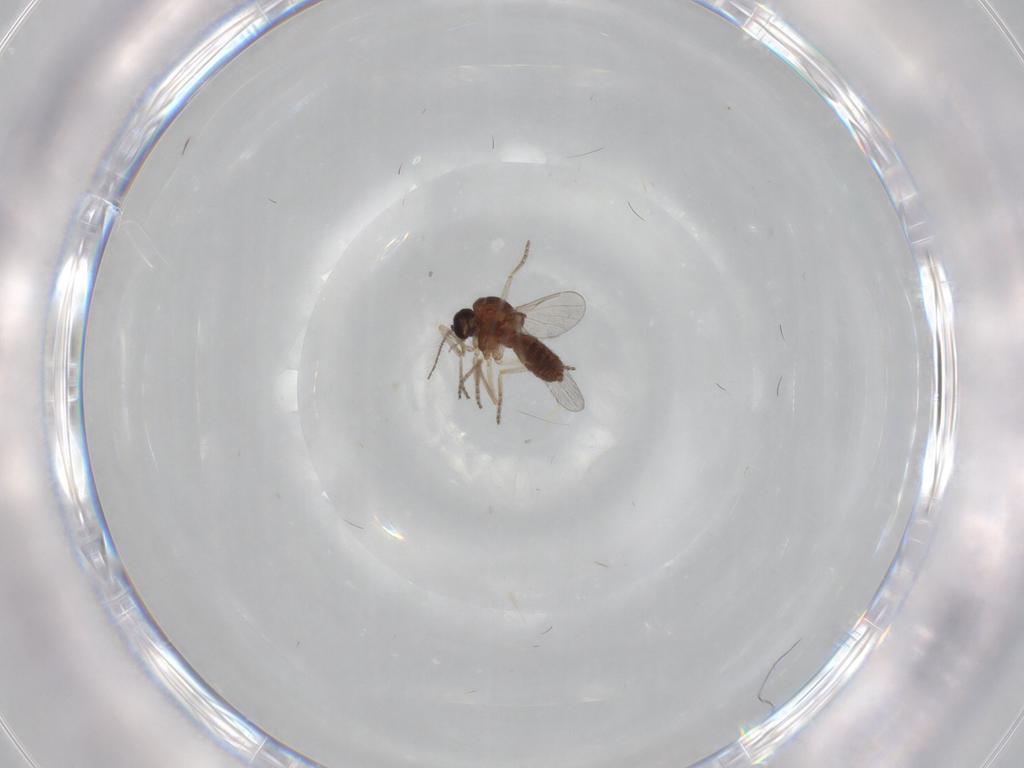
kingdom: Animalia
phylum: Arthropoda
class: Insecta
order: Diptera
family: Ceratopogonidae
